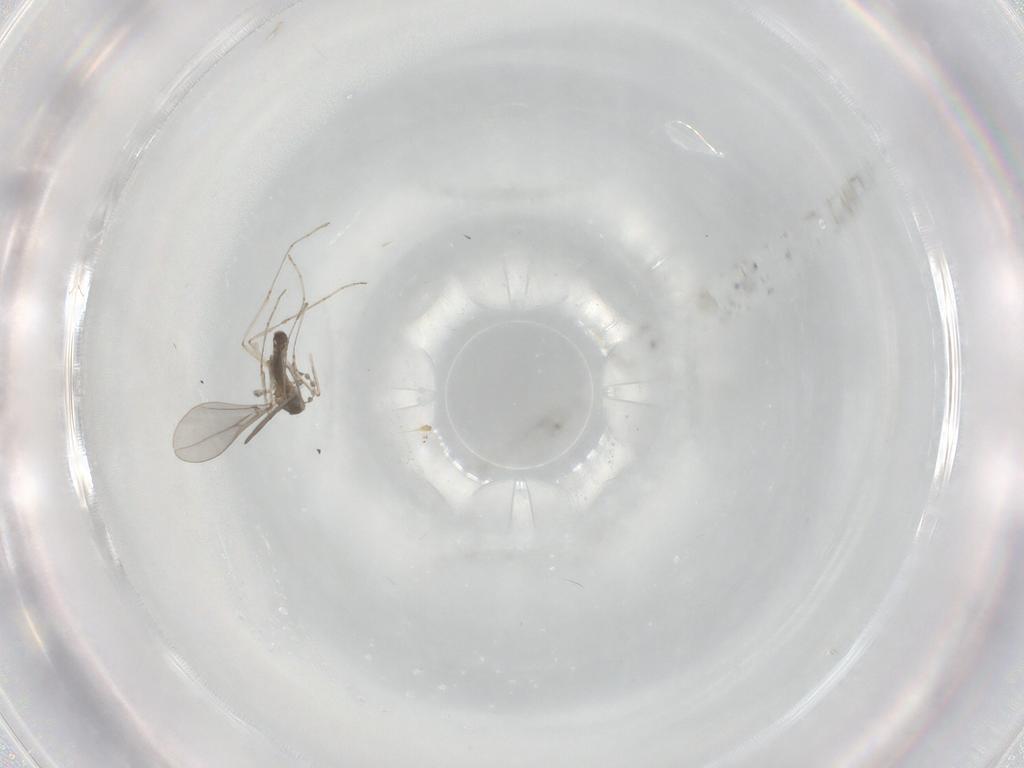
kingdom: Animalia
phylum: Arthropoda
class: Insecta
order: Diptera
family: Cecidomyiidae
